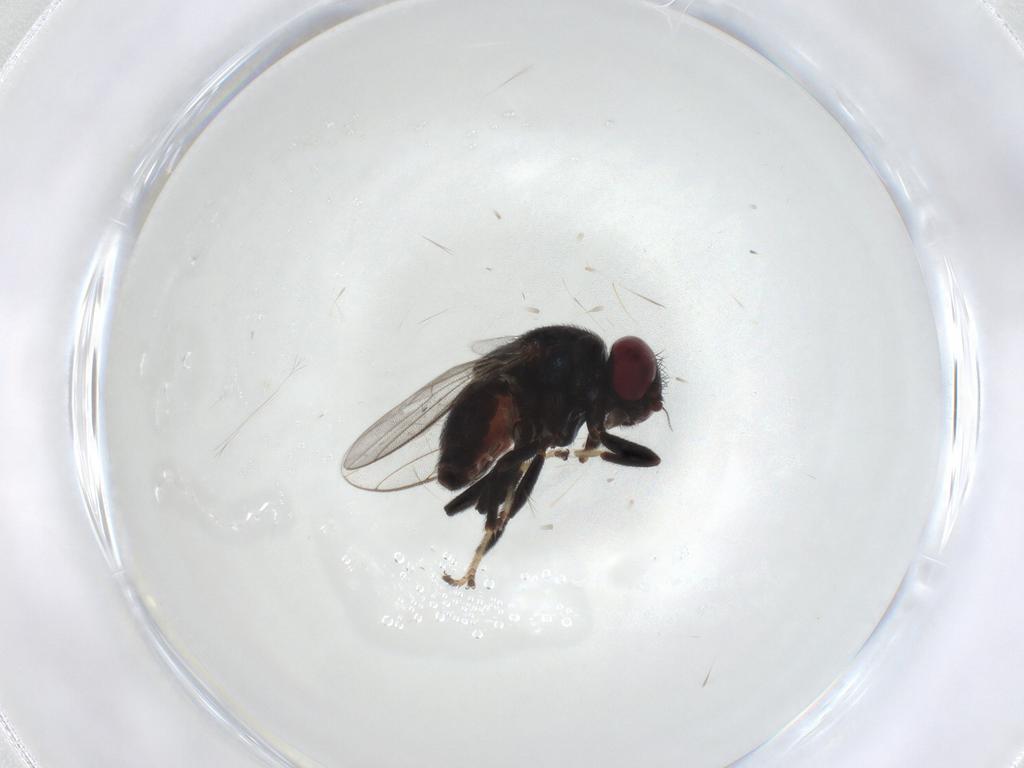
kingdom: Animalia
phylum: Arthropoda
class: Insecta
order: Diptera
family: Chloropidae
